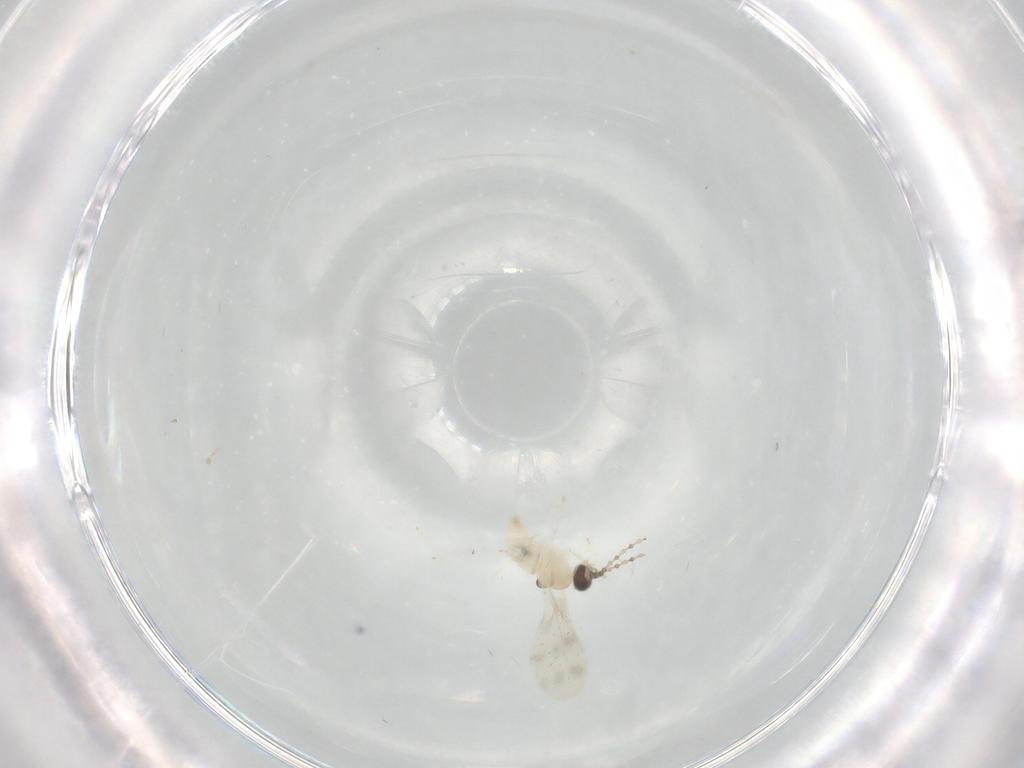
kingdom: Animalia
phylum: Arthropoda
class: Insecta
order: Diptera
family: Cecidomyiidae
